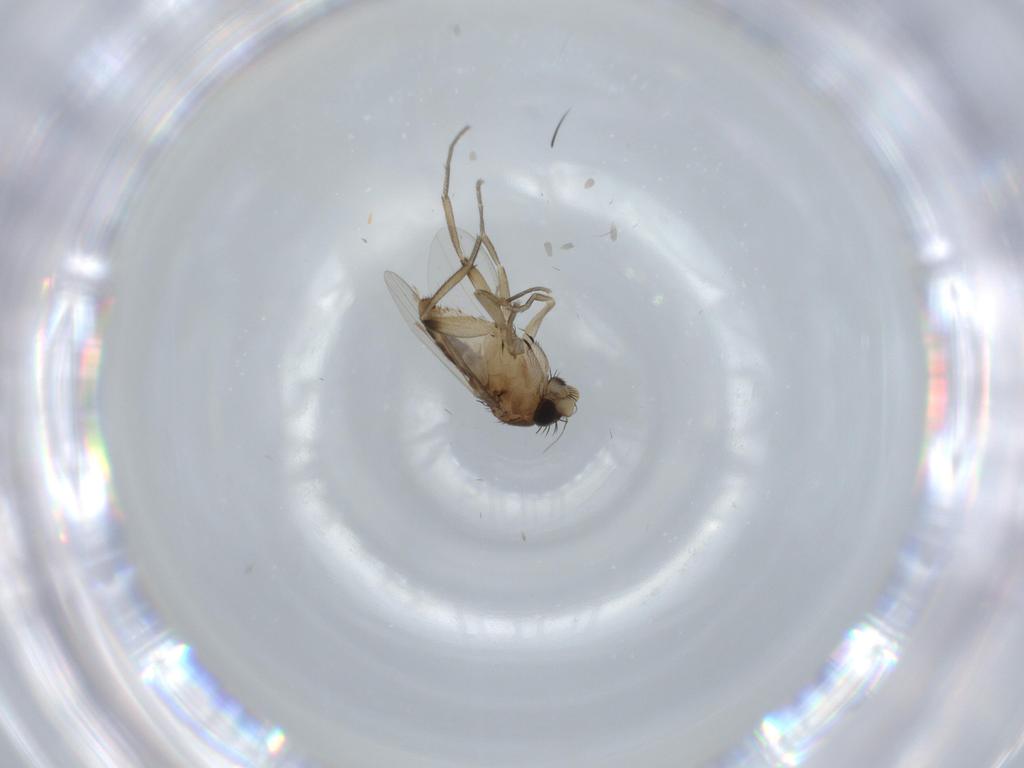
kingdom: Animalia
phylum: Arthropoda
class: Insecta
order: Diptera
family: Phoridae
